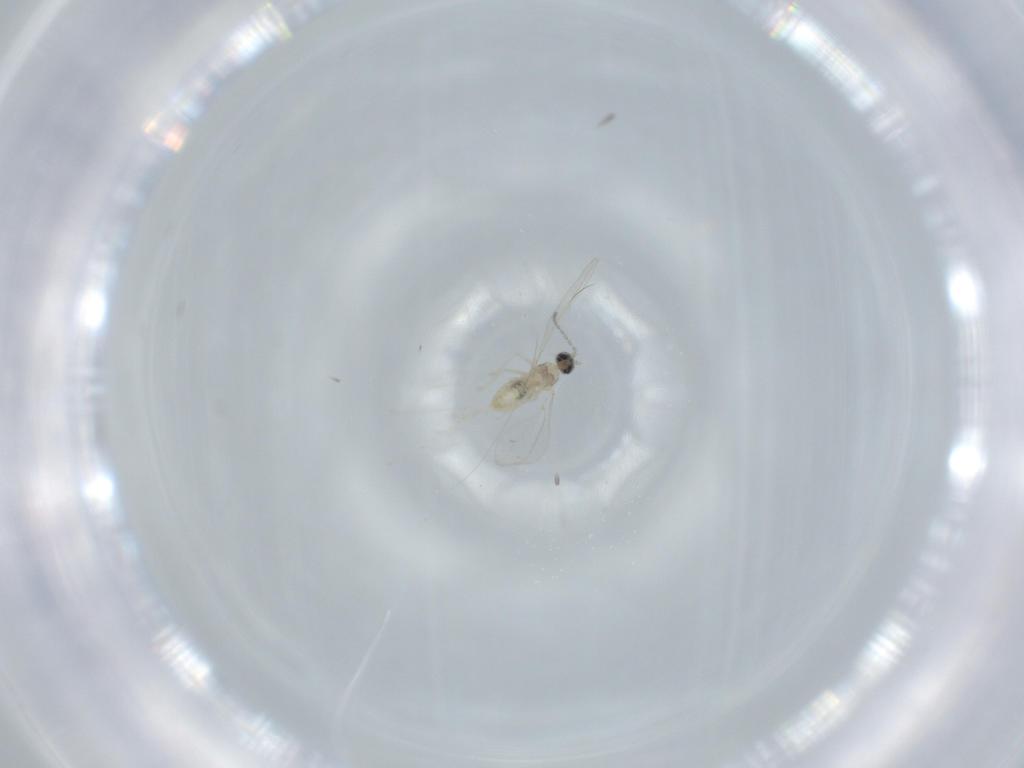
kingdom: Animalia
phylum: Arthropoda
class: Insecta
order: Diptera
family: Cecidomyiidae
